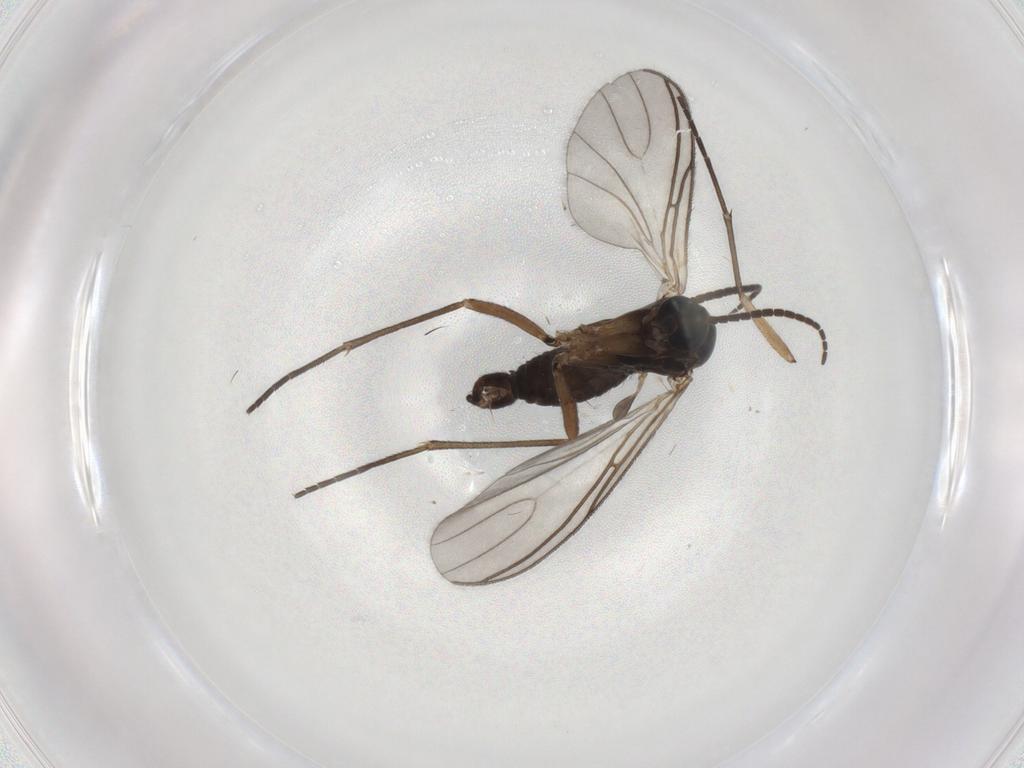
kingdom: Animalia
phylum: Arthropoda
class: Insecta
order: Diptera
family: Sciaridae
